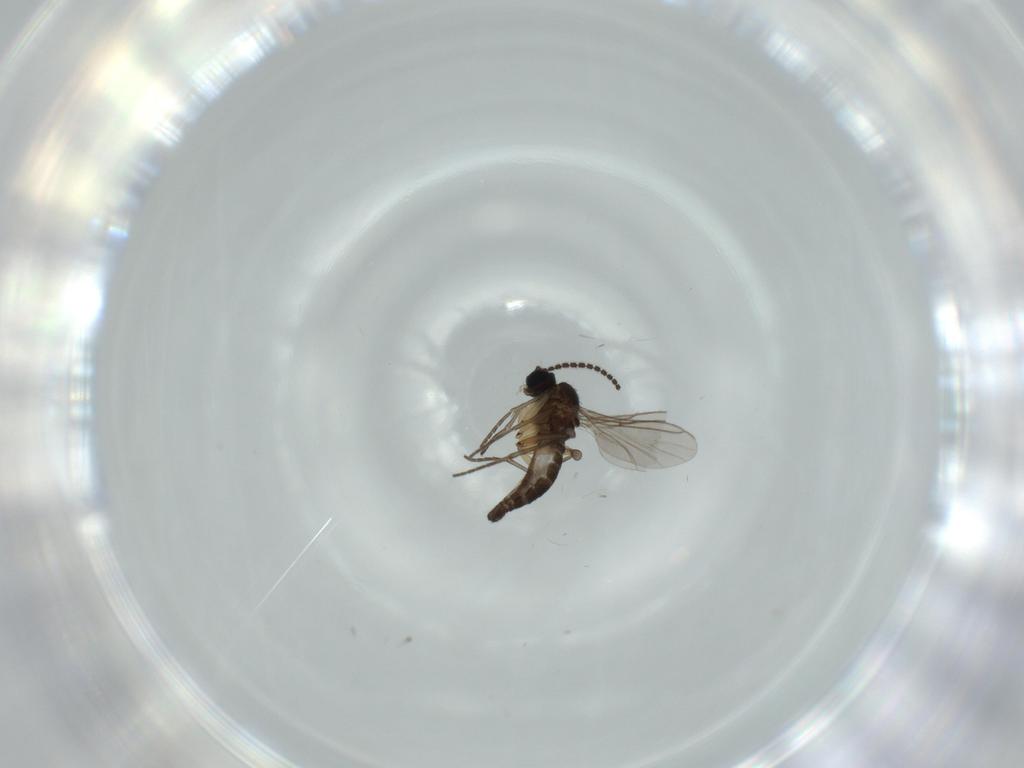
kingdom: Animalia
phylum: Arthropoda
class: Insecta
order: Diptera
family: Sciaridae
